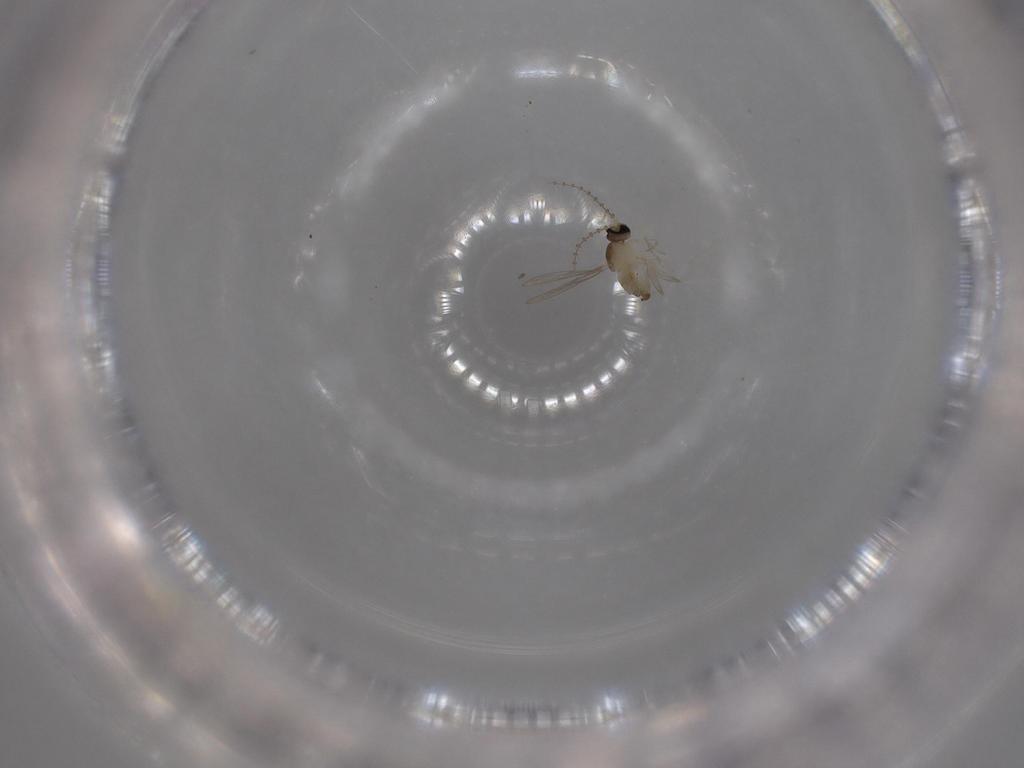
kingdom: Animalia
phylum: Arthropoda
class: Insecta
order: Diptera
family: Cecidomyiidae
